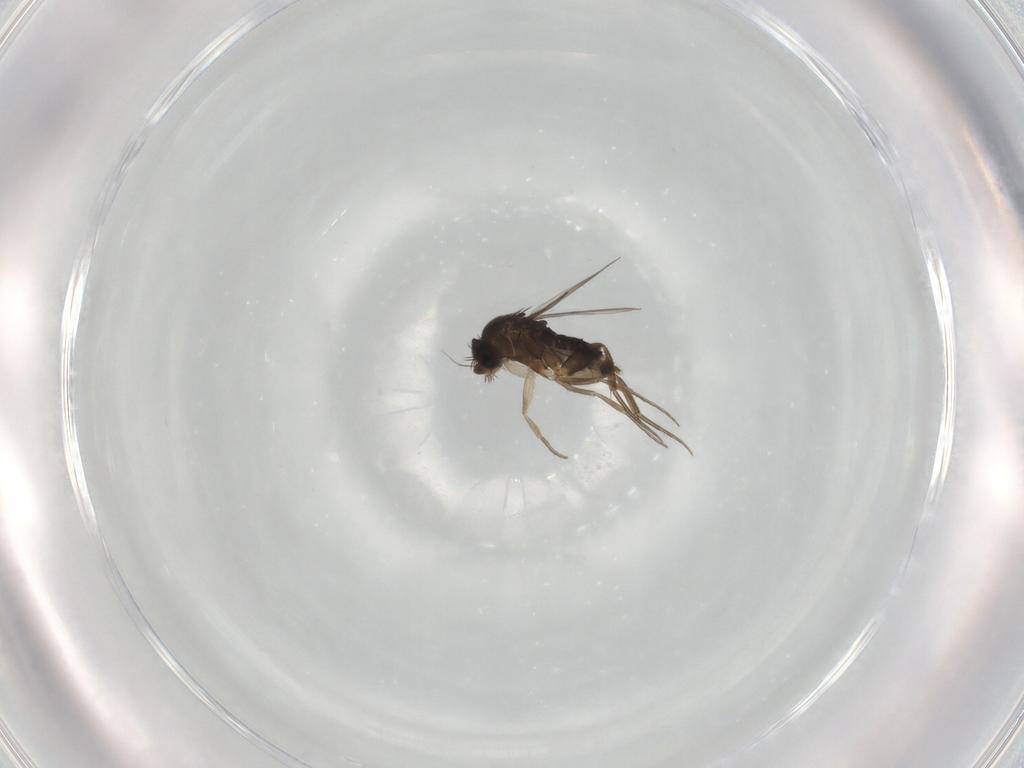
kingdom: Animalia
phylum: Arthropoda
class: Insecta
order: Diptera
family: Phoridae
